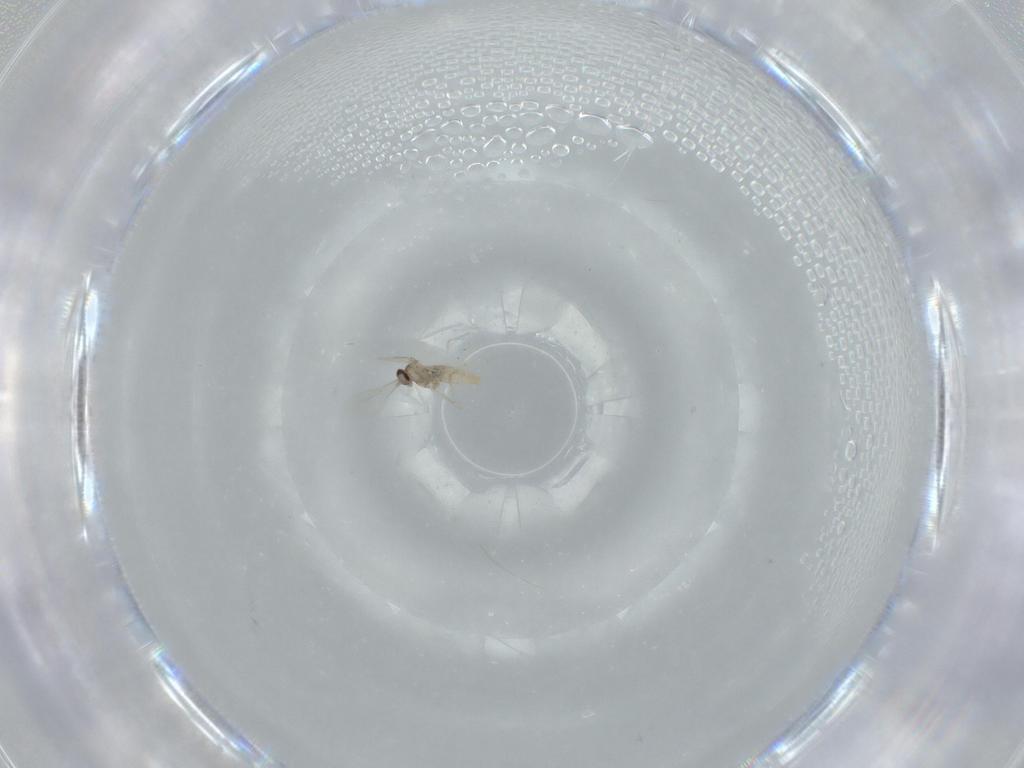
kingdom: Animalia
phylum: Arthropoda
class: Insecta
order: Diptera
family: Cecidomyiidae
